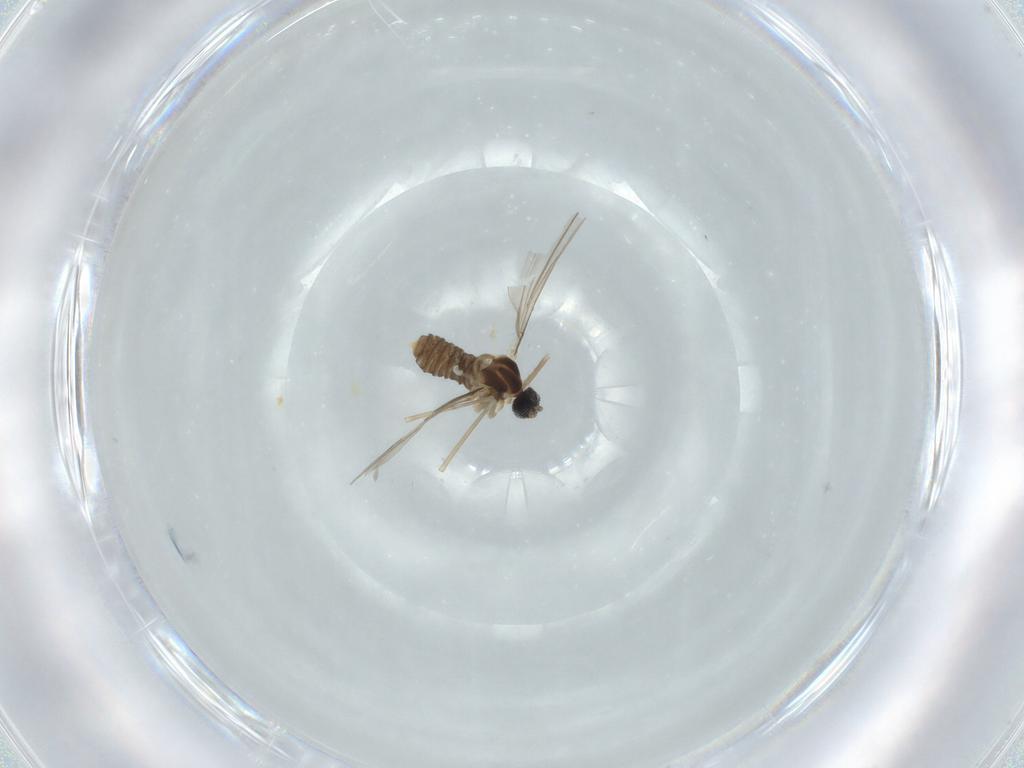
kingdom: Animalia
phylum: Arthropoda
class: Insecta
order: Diptera
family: Cecidomyiidae
